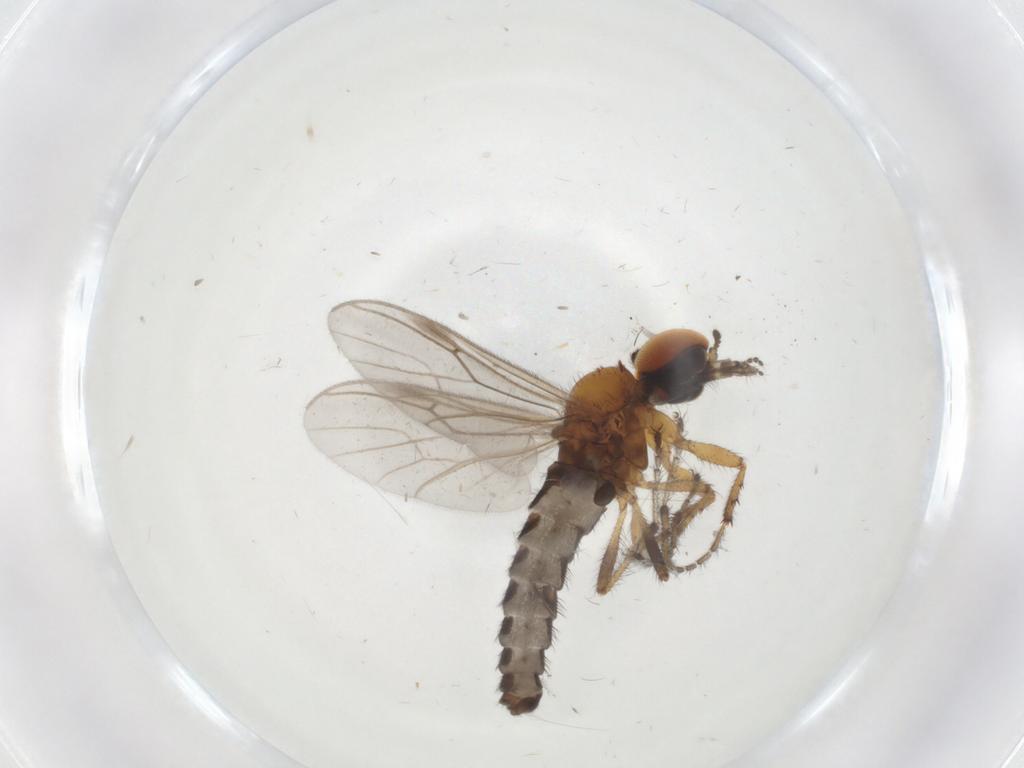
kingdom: Animalia
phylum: Arthropoda
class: Insecta
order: Diptera
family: Bibionidae
